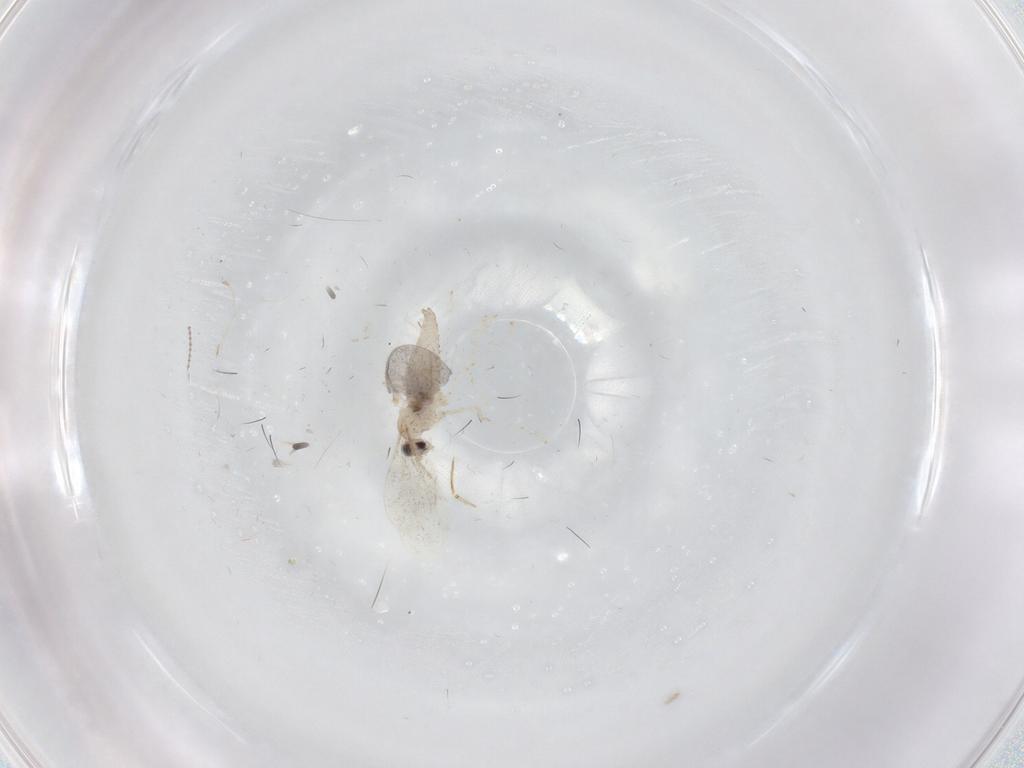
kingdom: Animalia
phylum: Arthropoda
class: Insecta
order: Diptera
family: Cecidomyiidae
